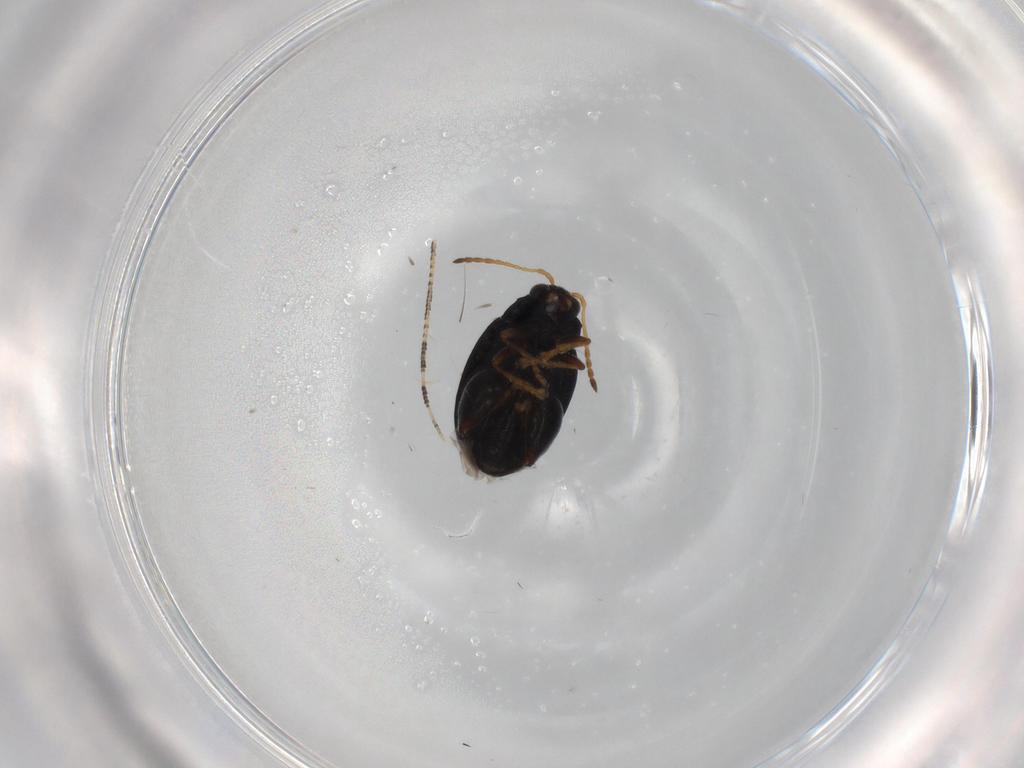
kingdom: Animalia
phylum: Arthropoda
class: Insecta
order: Coleoptera
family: Chrysomelidae
